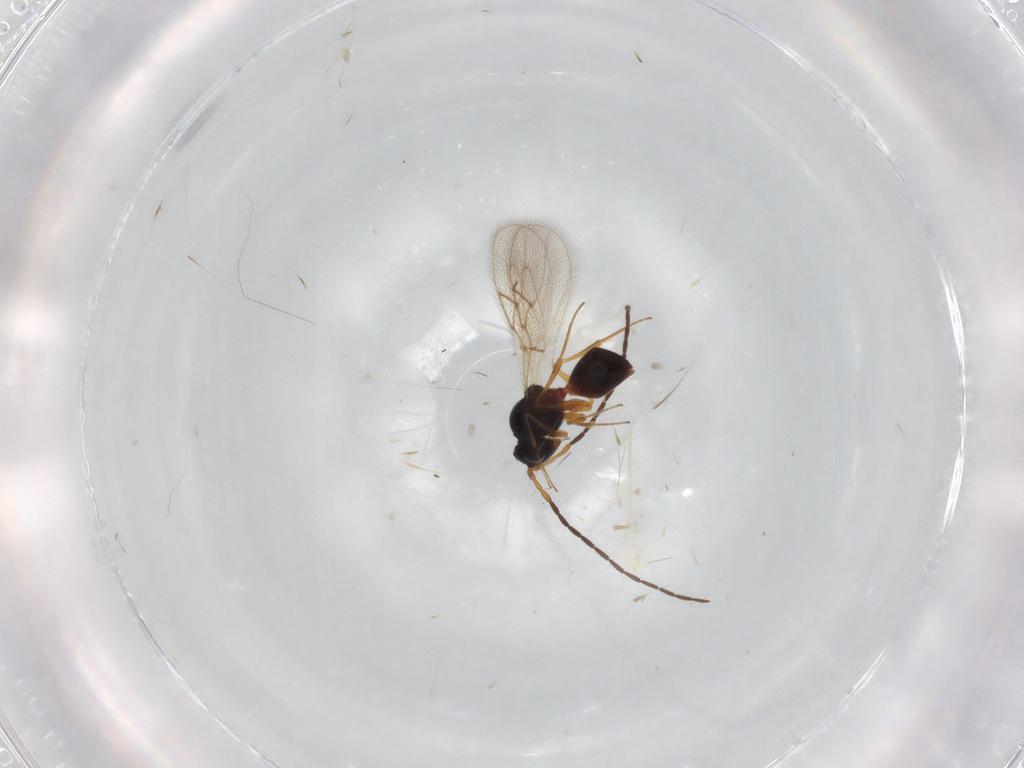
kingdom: Animalia
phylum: Arthropoda
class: Insecta
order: Hymenoptera
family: Figitidae
